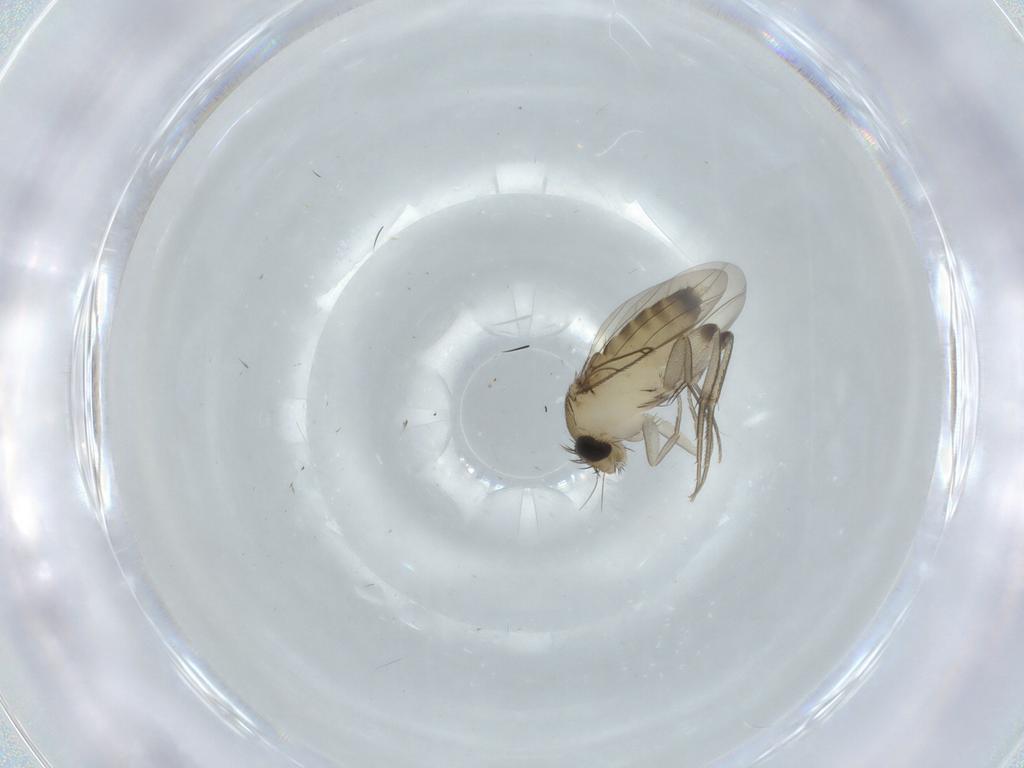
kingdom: Animalia
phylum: Arthropoda
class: Insecta
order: Diptera
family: Phoridae
